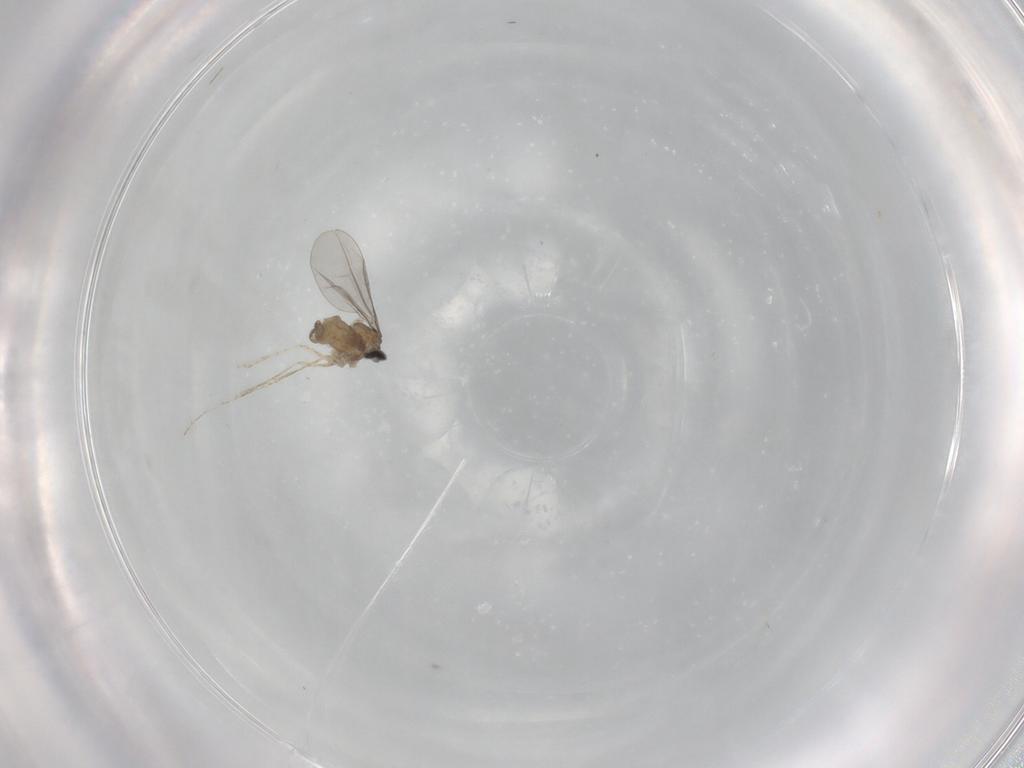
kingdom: Animalia
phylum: Arthropoda
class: Insecta
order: Diptera
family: Cecidomyiidae
